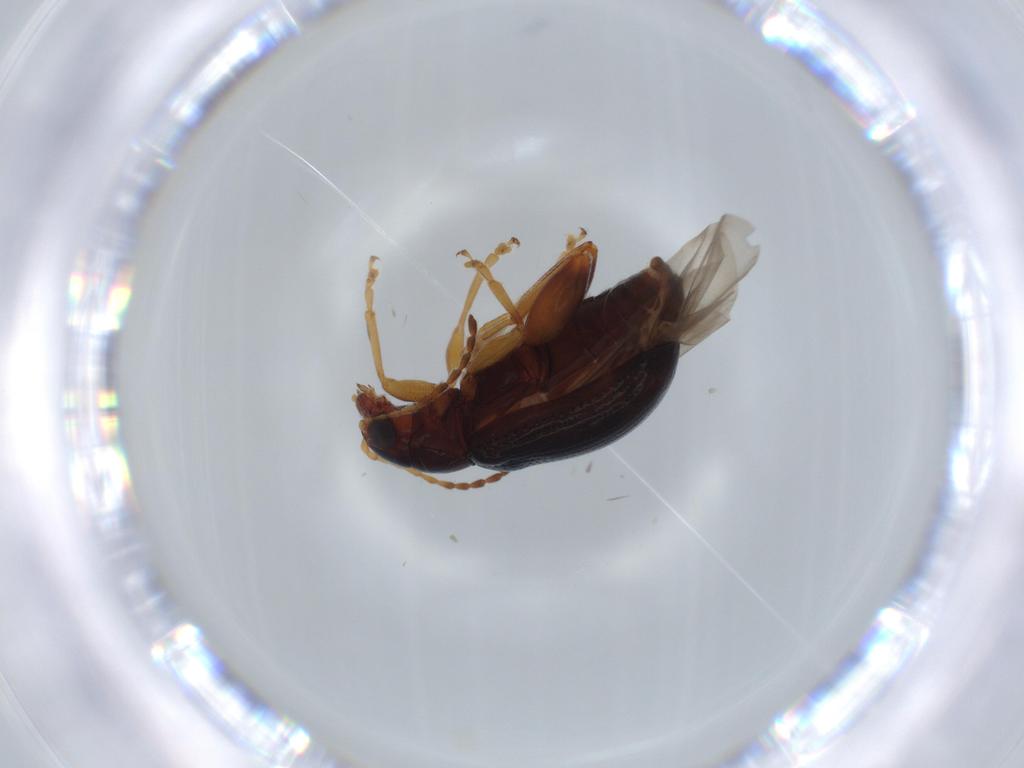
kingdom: Animalia
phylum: Arthropoda
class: Insecta
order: Coleoptera
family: Chrysomelidae
